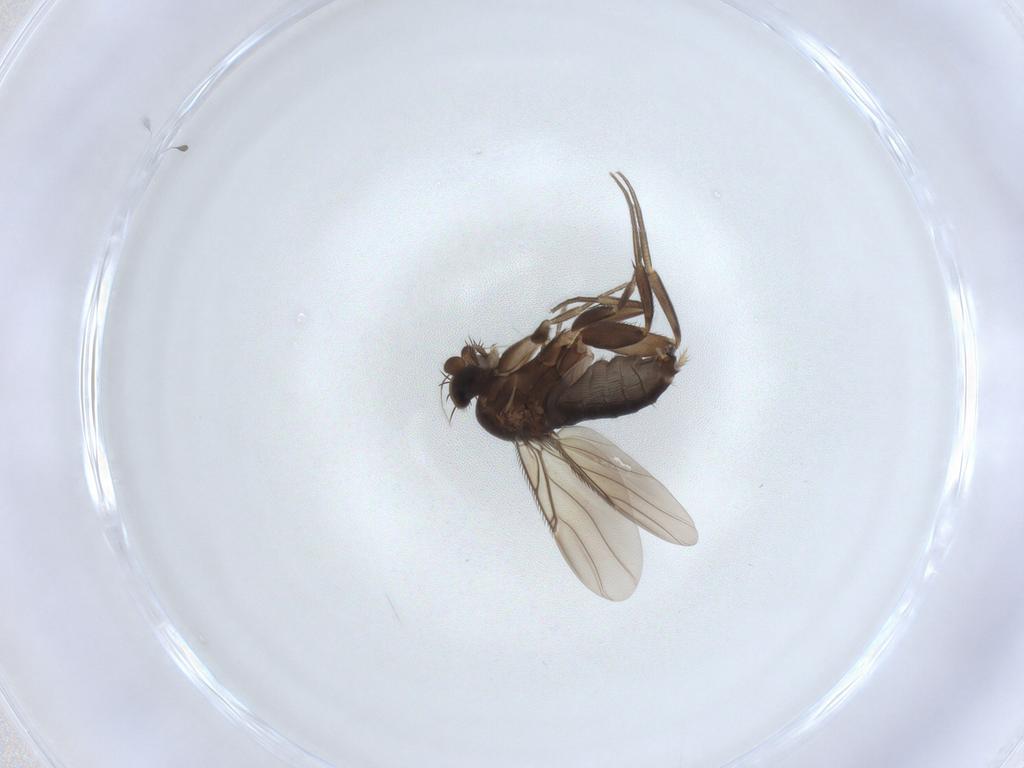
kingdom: Animalia
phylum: Arthropoda
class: Insecta
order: Diptera
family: Phoridae
